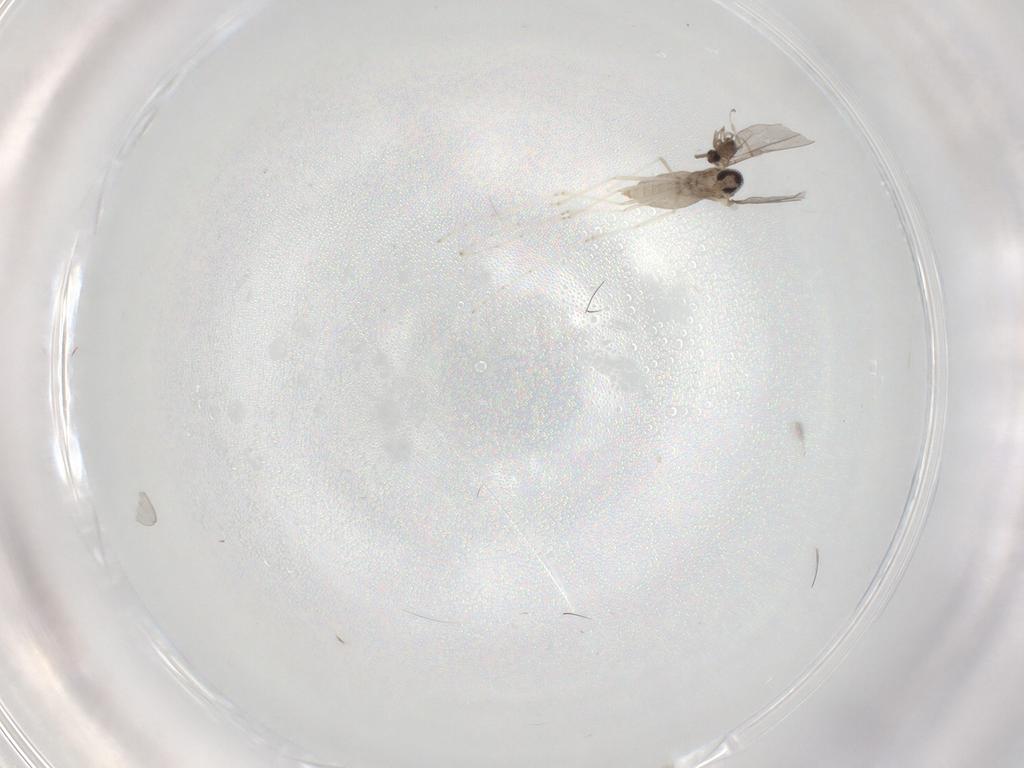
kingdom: Animalia
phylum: Arthropoda
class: Insecta
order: Diptera
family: Cecidomyiidae
